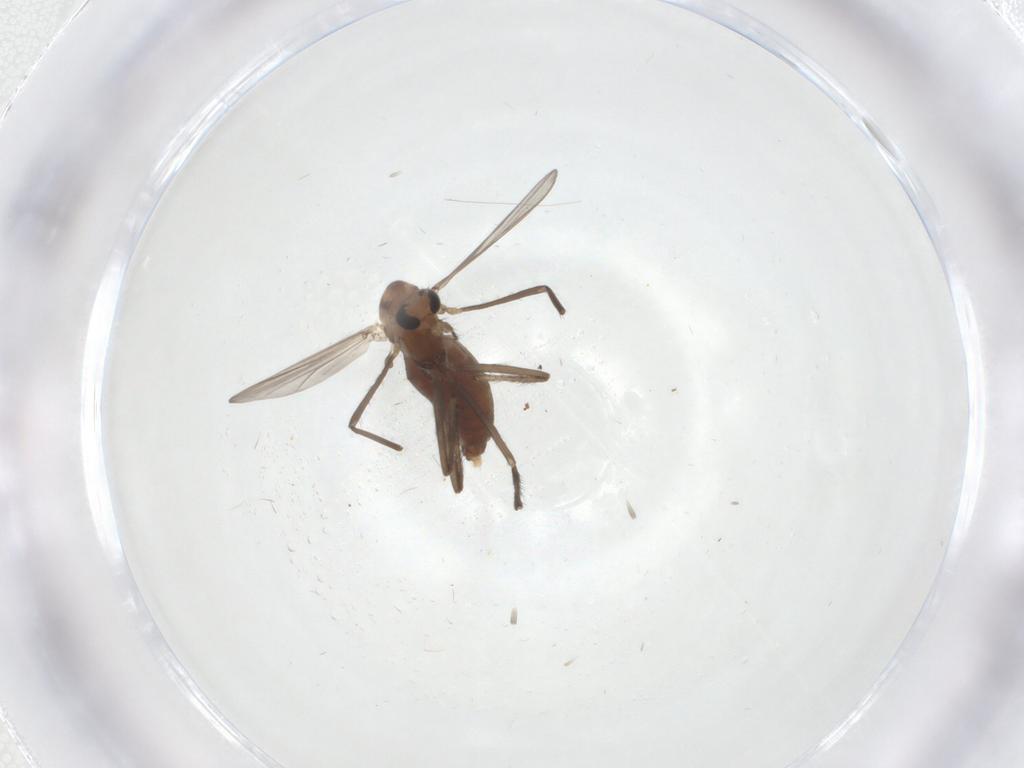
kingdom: Animalia
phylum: Arthropoda
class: Insecta
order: Diptera
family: Chironomidae
